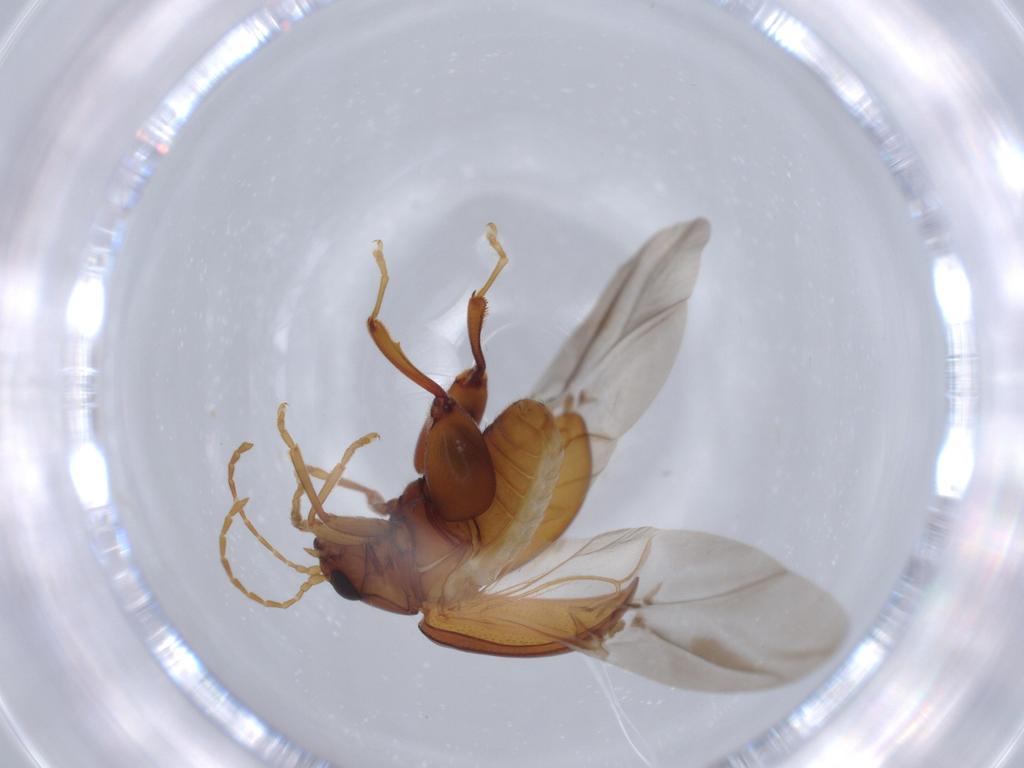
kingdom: Animalia
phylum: Arthropoda
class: Insecta
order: Coleoptera
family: Chrysomelidae
